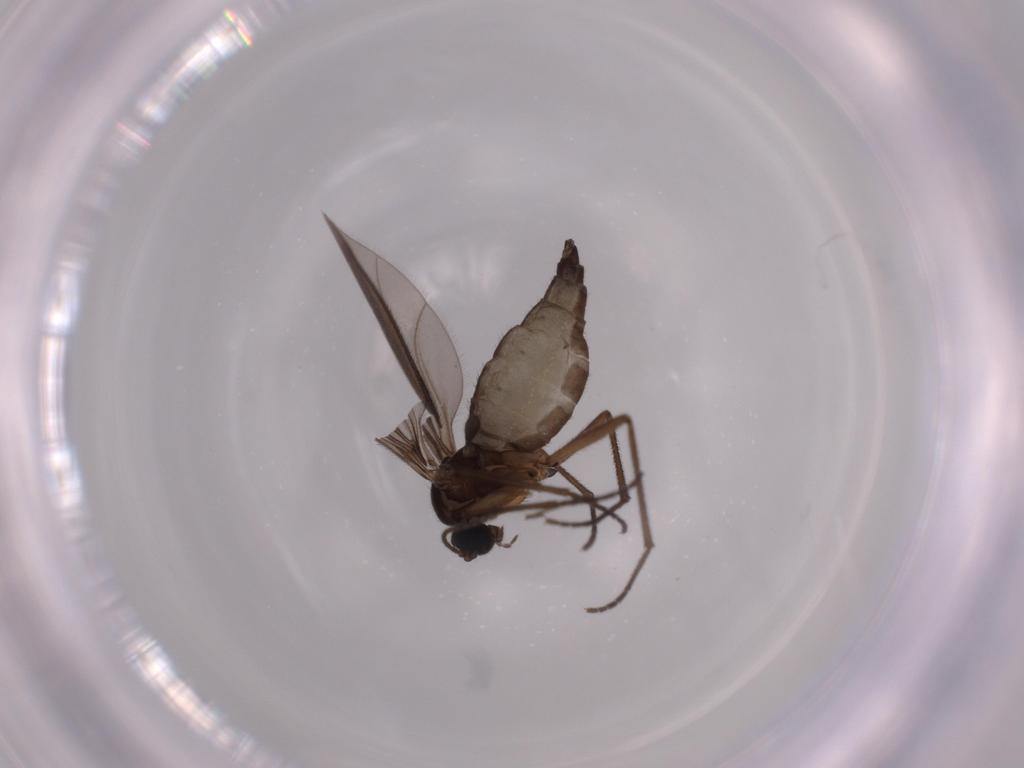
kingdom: Animalia
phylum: Arthropoda
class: Insecta
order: Diptera
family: Sciaridae
